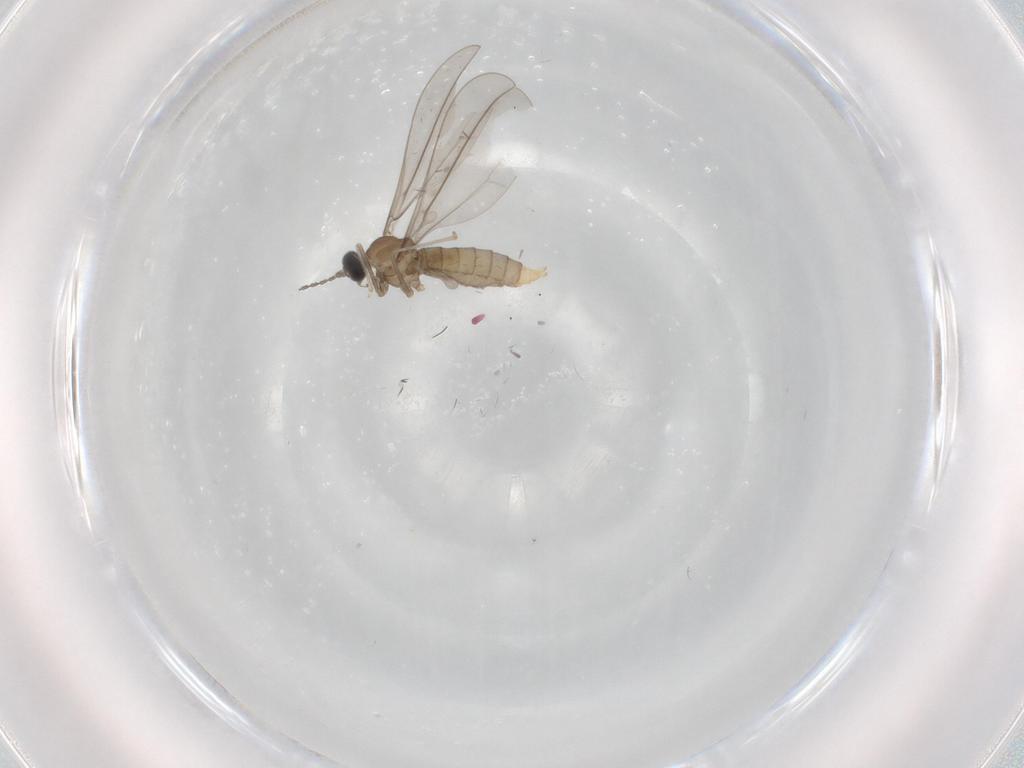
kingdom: Animalia
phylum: Arthropoda
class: Insecta
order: Diptera
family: Cecidomyiidae
